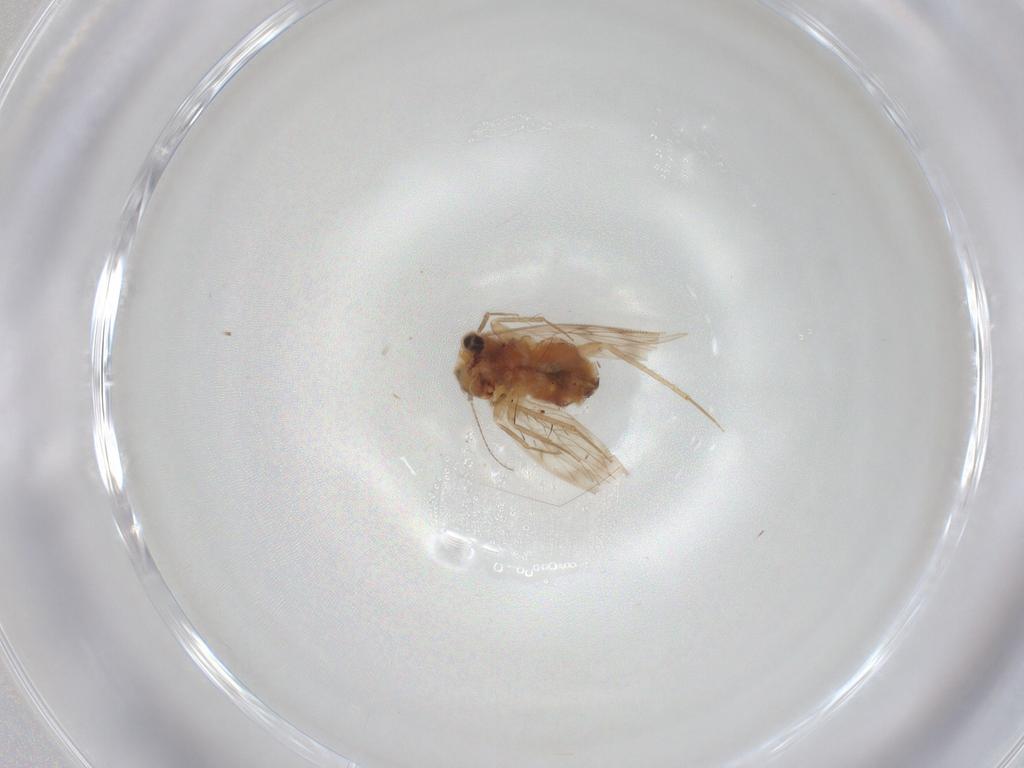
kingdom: Animalia
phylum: Arthropoda
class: Insecta
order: Psocodea
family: Lepidopsocidae
